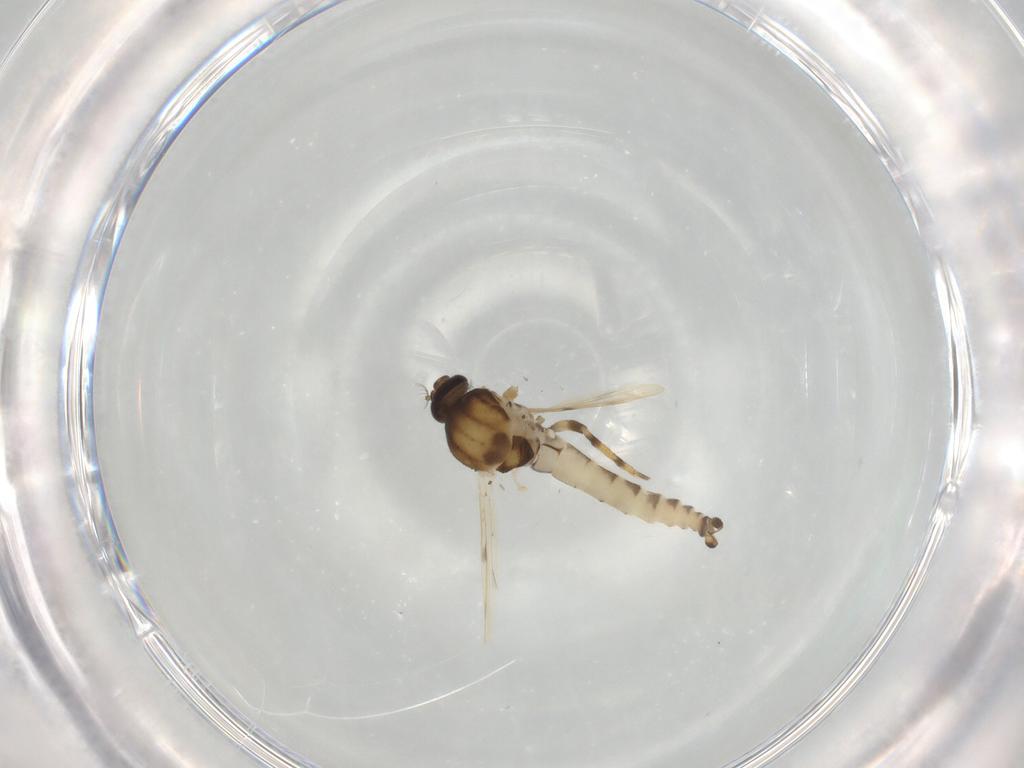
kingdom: Animalia
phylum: Arthropoda
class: Insecta
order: Diptera
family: Ceratopogonidae
